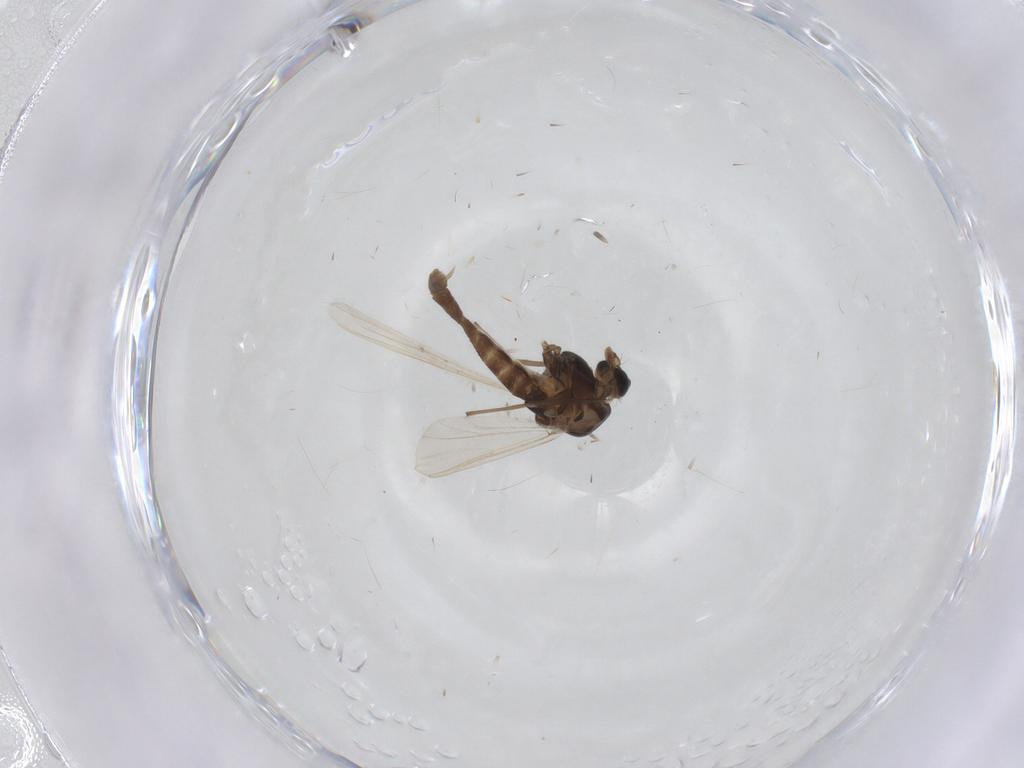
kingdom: Animalia
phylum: Arthropoda
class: Insecta
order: Diptera
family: Chironomidae
